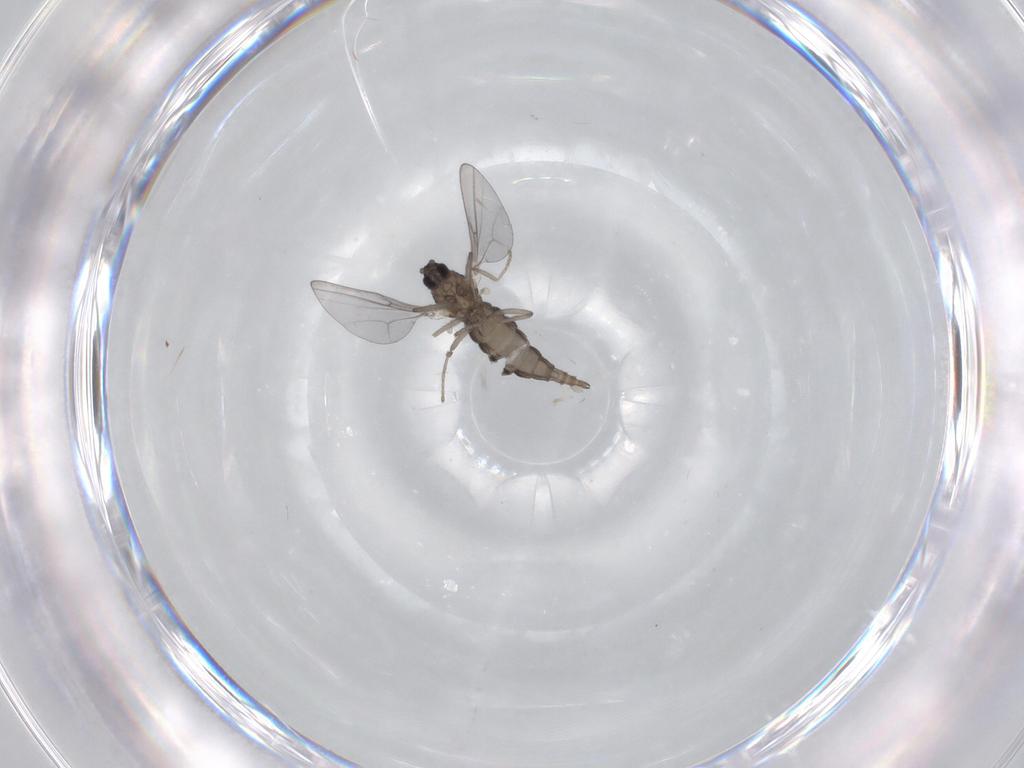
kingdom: Animalia
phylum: Arthropoda
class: Insecta
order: Diptera
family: Cecidomyiidae
